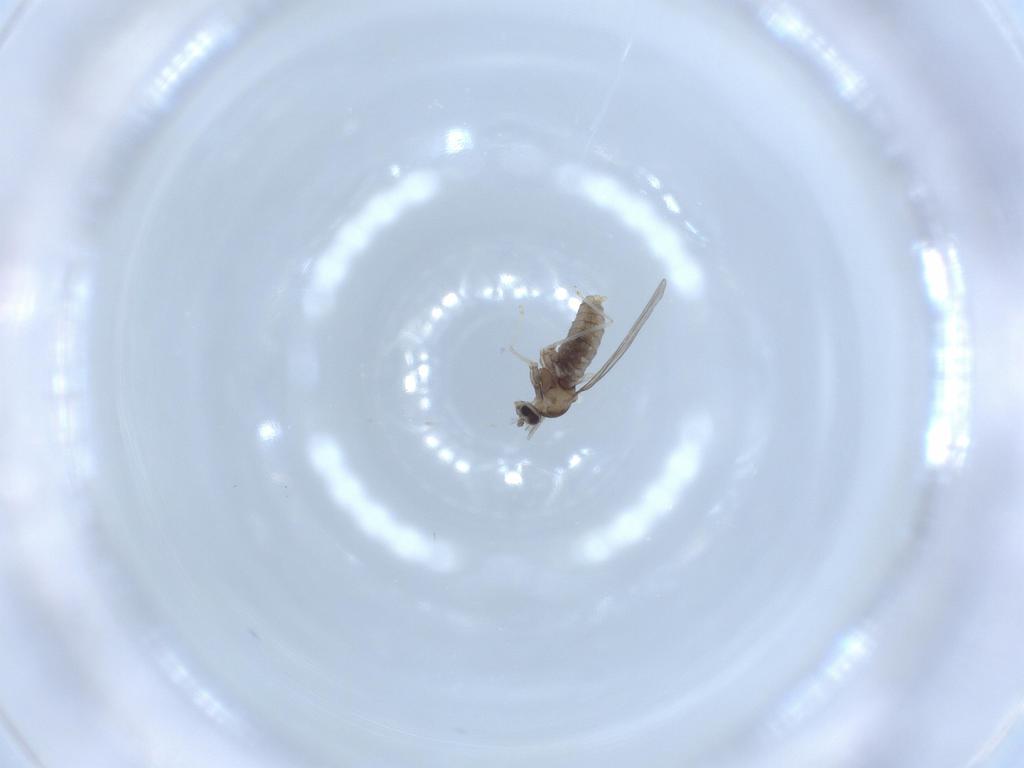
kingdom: Animalia
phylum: Arthropoda
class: Insecta
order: Diptera
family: Cecidomyiidae
